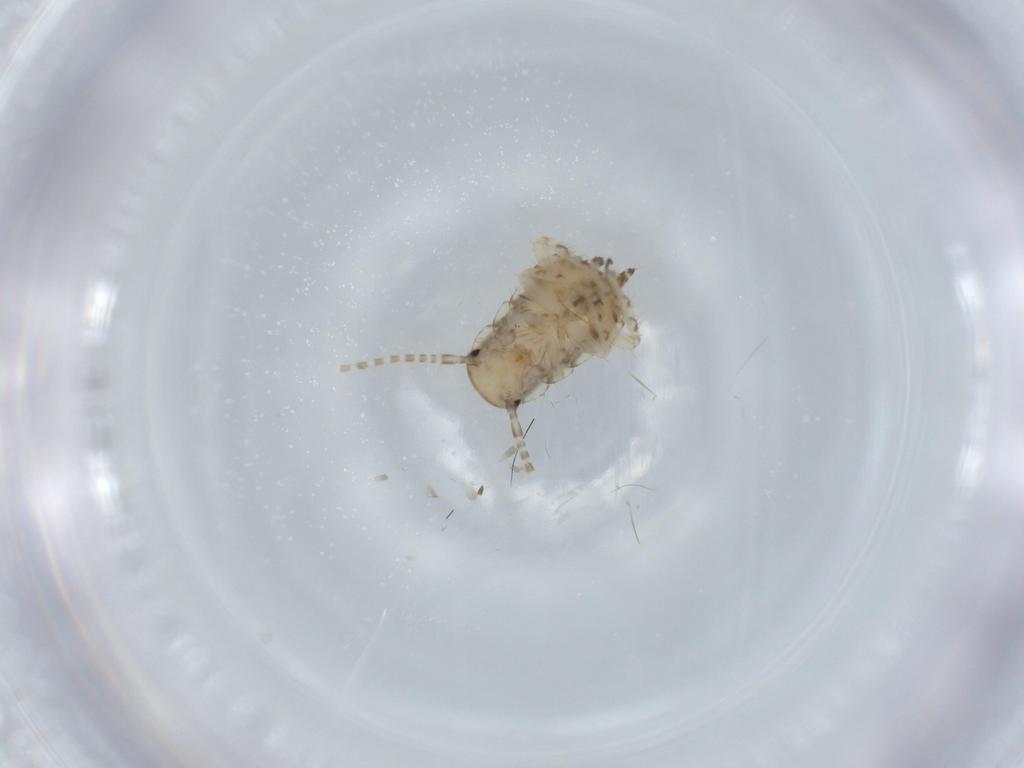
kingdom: Animalia
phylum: Arthropoda
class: Insecta
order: Blattodea
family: Ectobiidae
